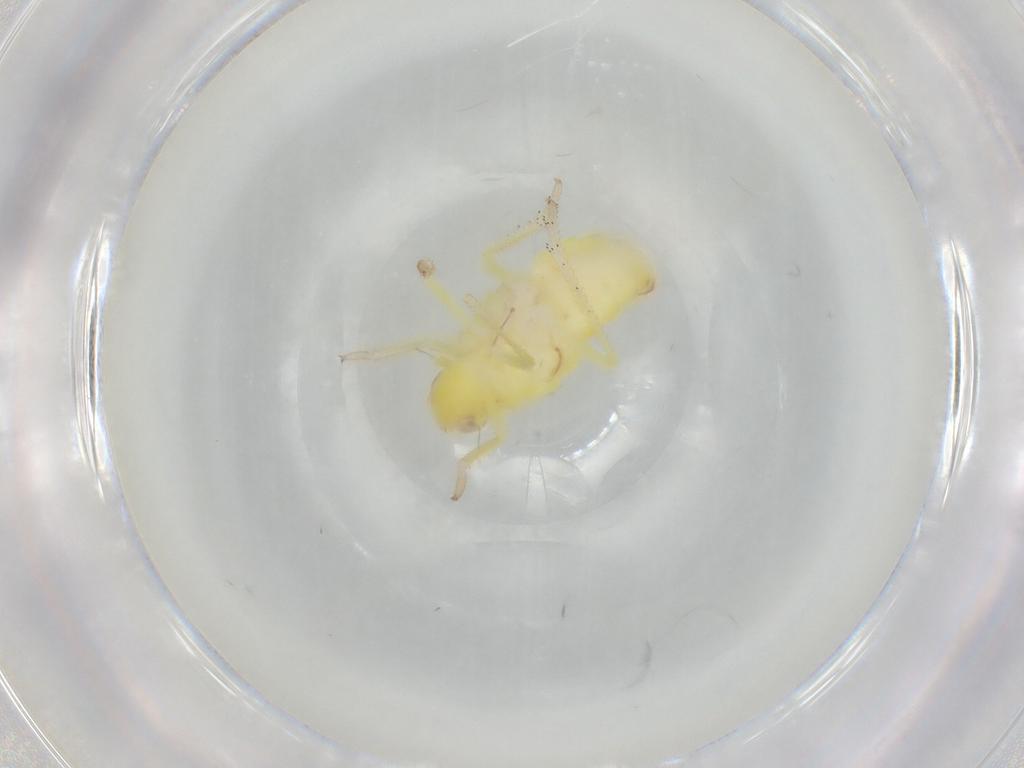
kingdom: Animalia
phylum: Arthropoda
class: Insecta
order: Hemiptera
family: Tropiduchidae
